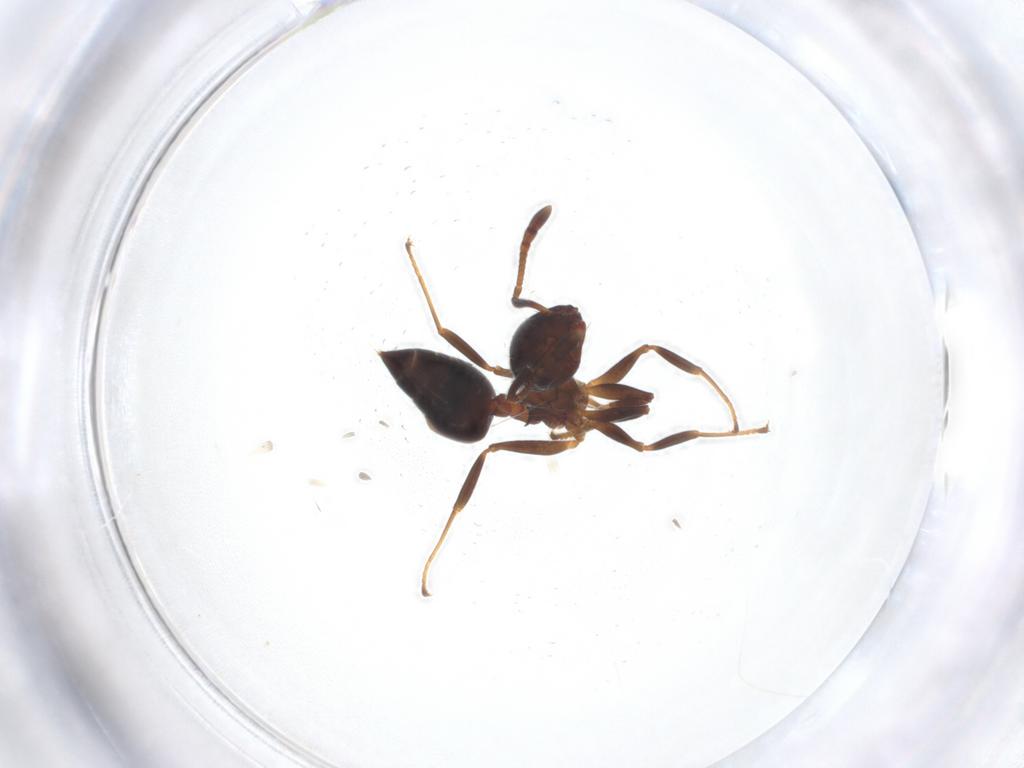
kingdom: Animalia
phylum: Arthropoda
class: Insecta
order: Hymenoptera
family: Formicidae
